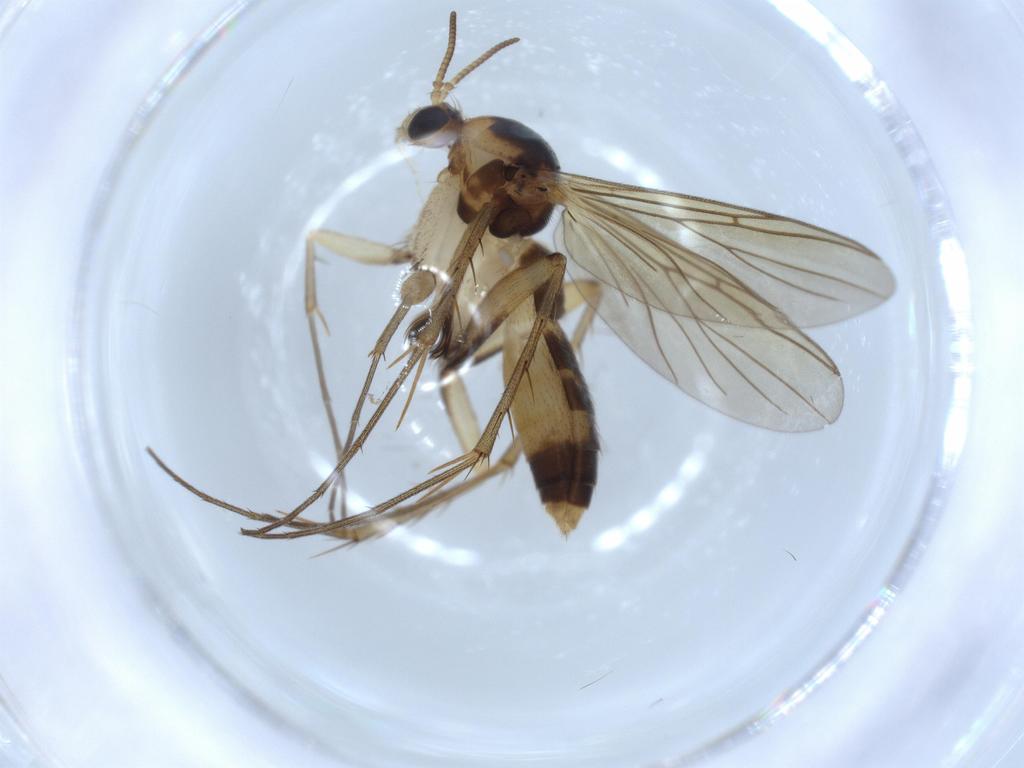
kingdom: Animalia
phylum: Arthropoda
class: Insecta
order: Diptera
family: Mycetophilidae
